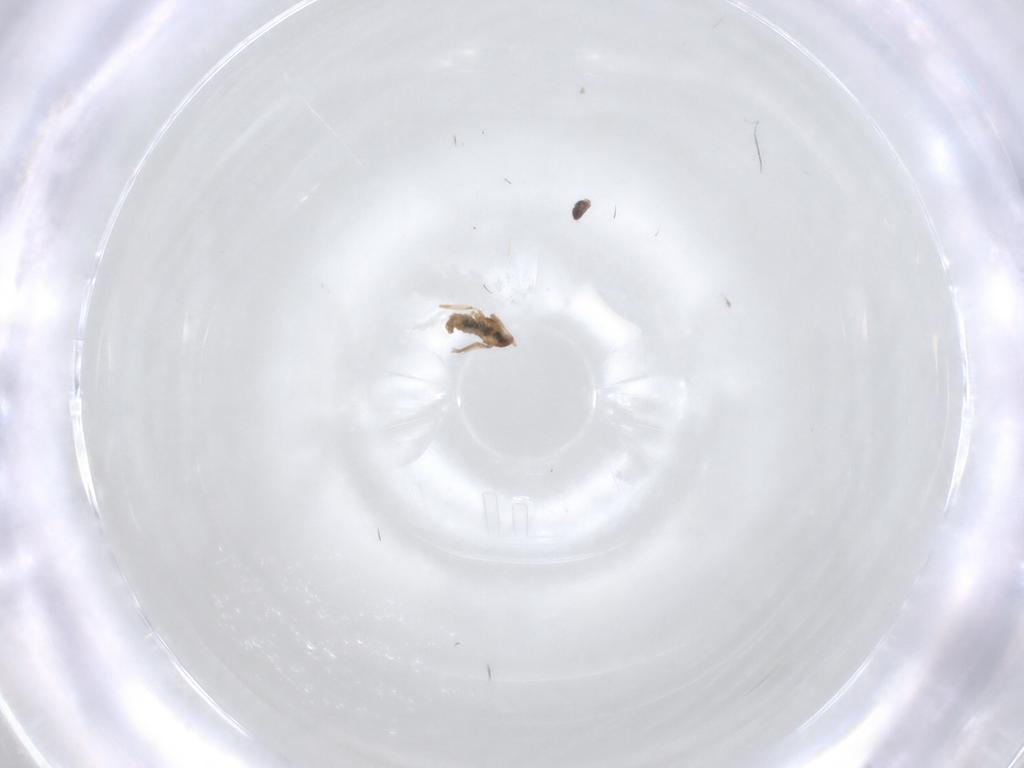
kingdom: Animalia
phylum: Arthropoda
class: Insecta
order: Diptera
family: Cecidomyiidae
